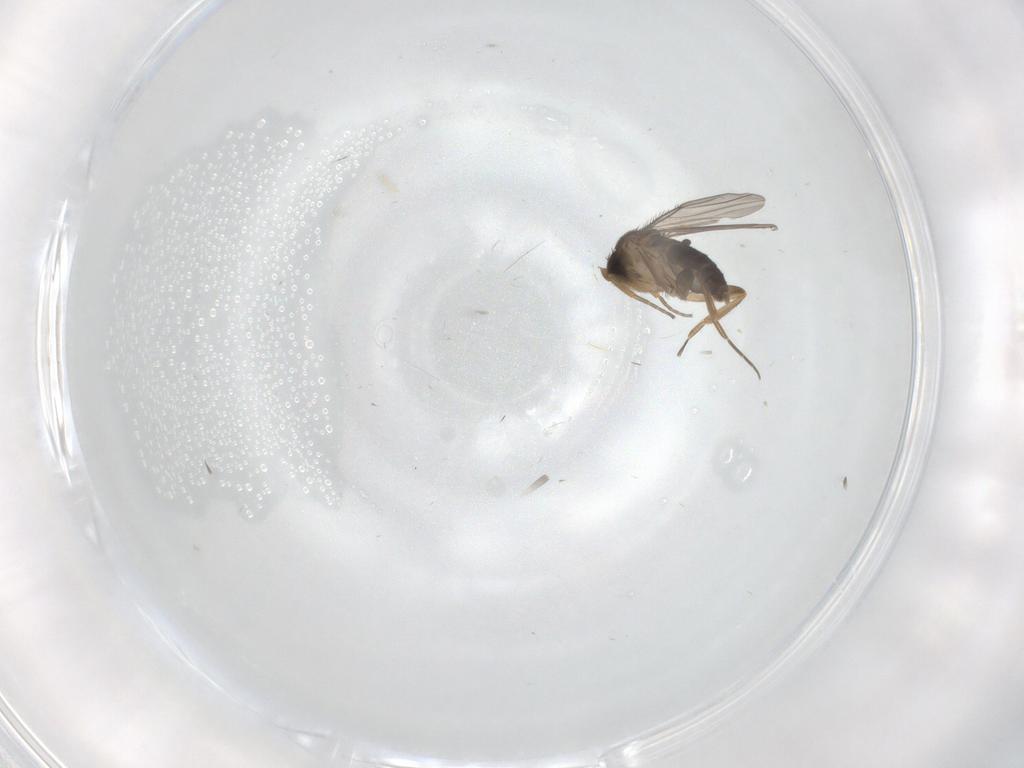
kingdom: Animalia
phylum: Arthropoda
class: Insecta
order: Diptera
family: Phoridae
